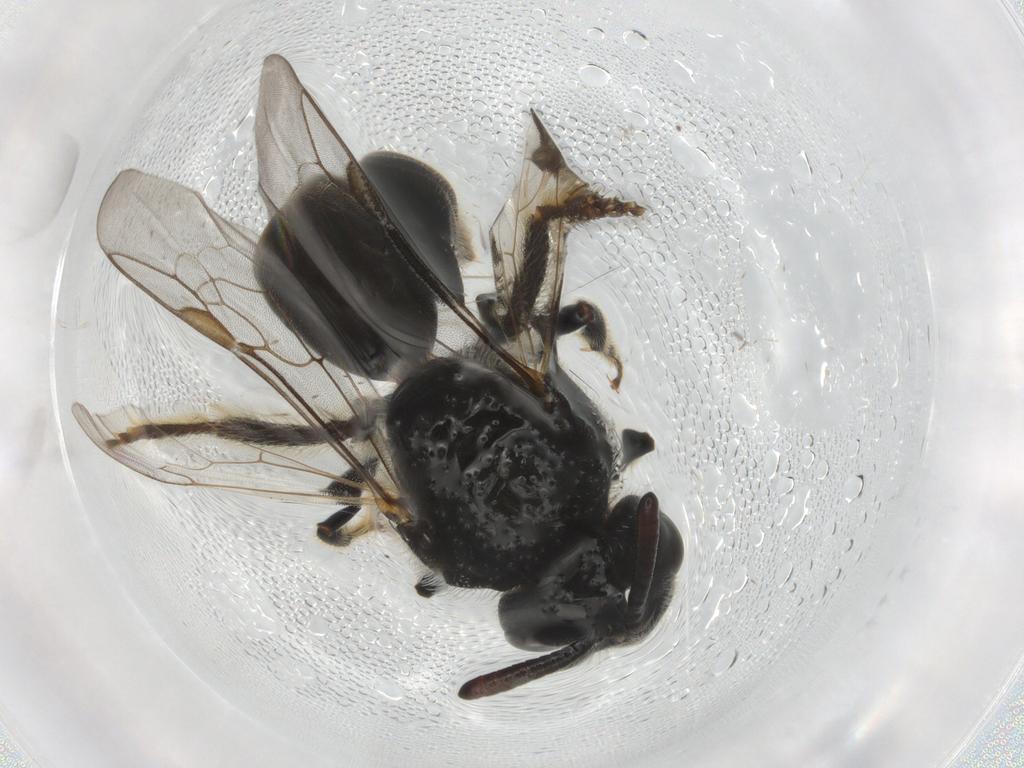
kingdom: Animalia
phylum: Arthropoda
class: Insecta
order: Hymenoptera
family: Halictidae
